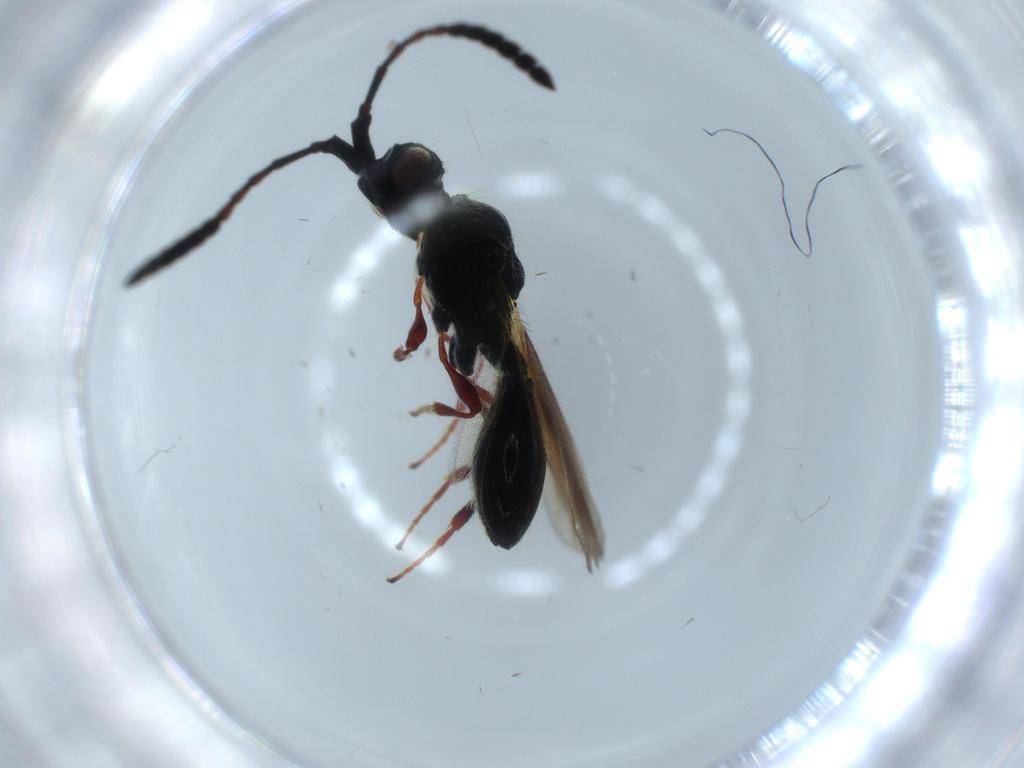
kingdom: Animalia
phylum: Arthropoda
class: Insecta
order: Hymenoptera
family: Diapriidae
